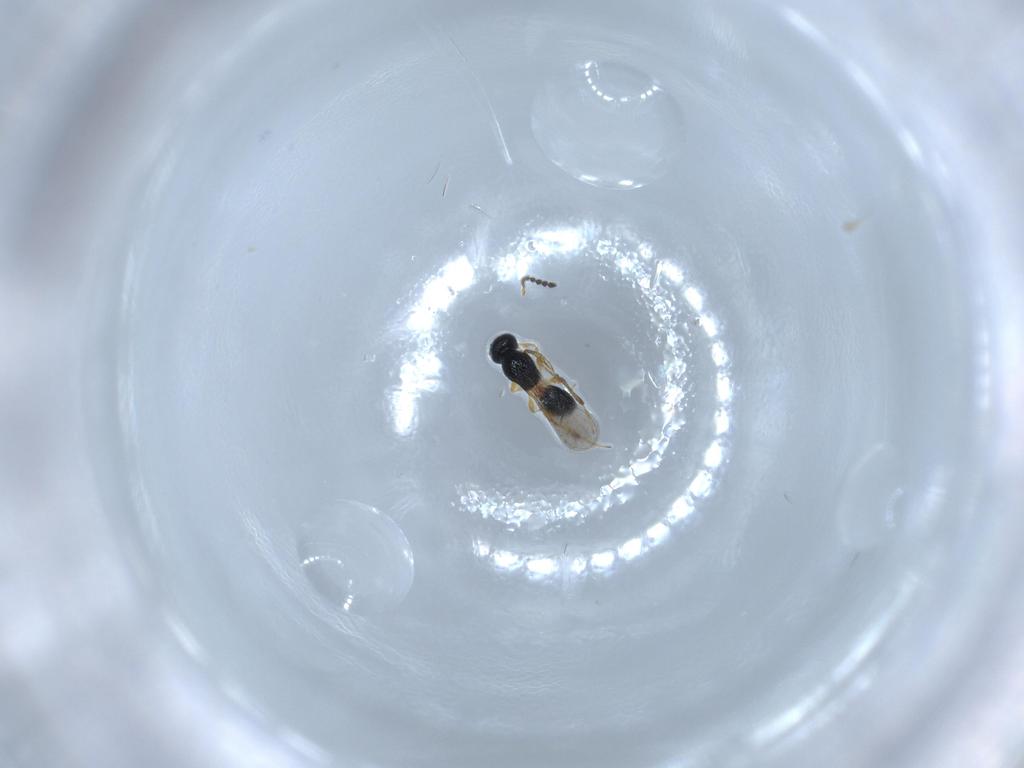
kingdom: Animalia
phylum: Arthropoda
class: Insecta
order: Hymenoptera
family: Platygastridae
